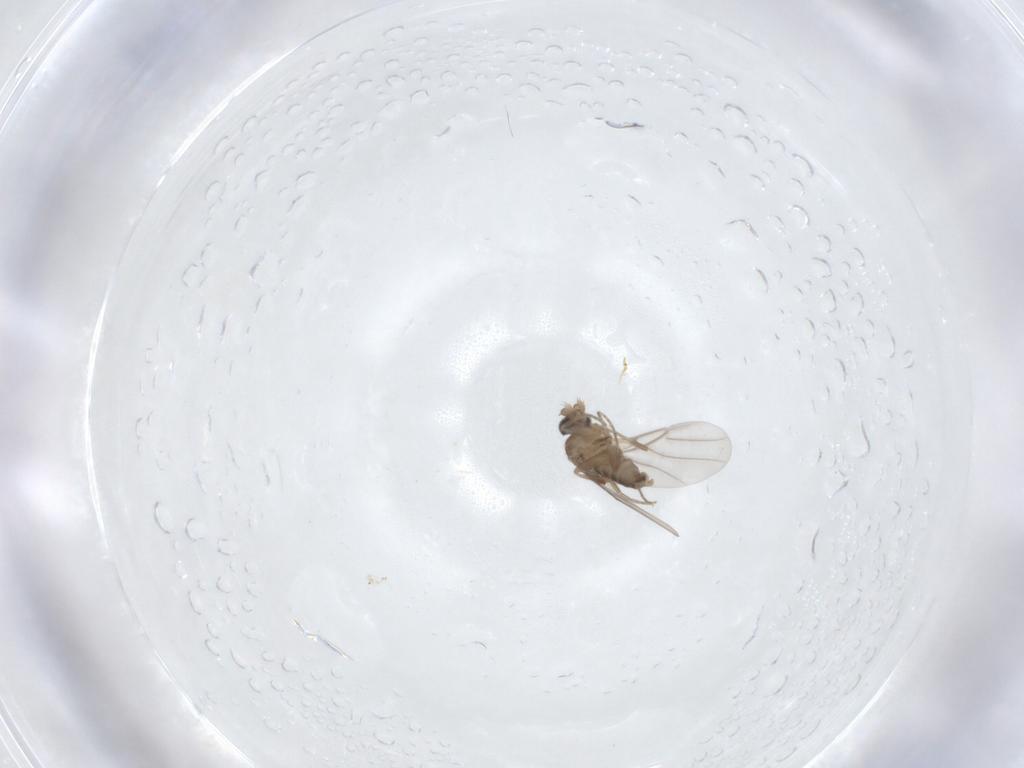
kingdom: Animalia
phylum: Arthropoda
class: Insecta
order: Diptera
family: Phoridae
